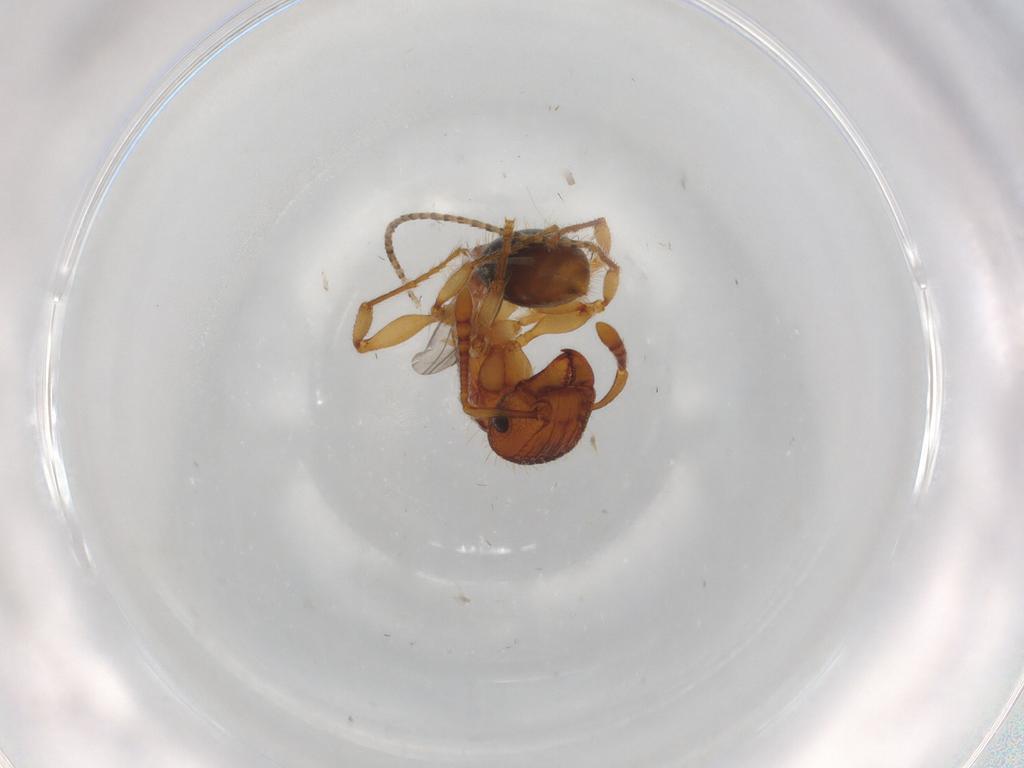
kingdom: Animalia
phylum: Arthropoda
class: Insecta
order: Hymenoptera
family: Formicidae
